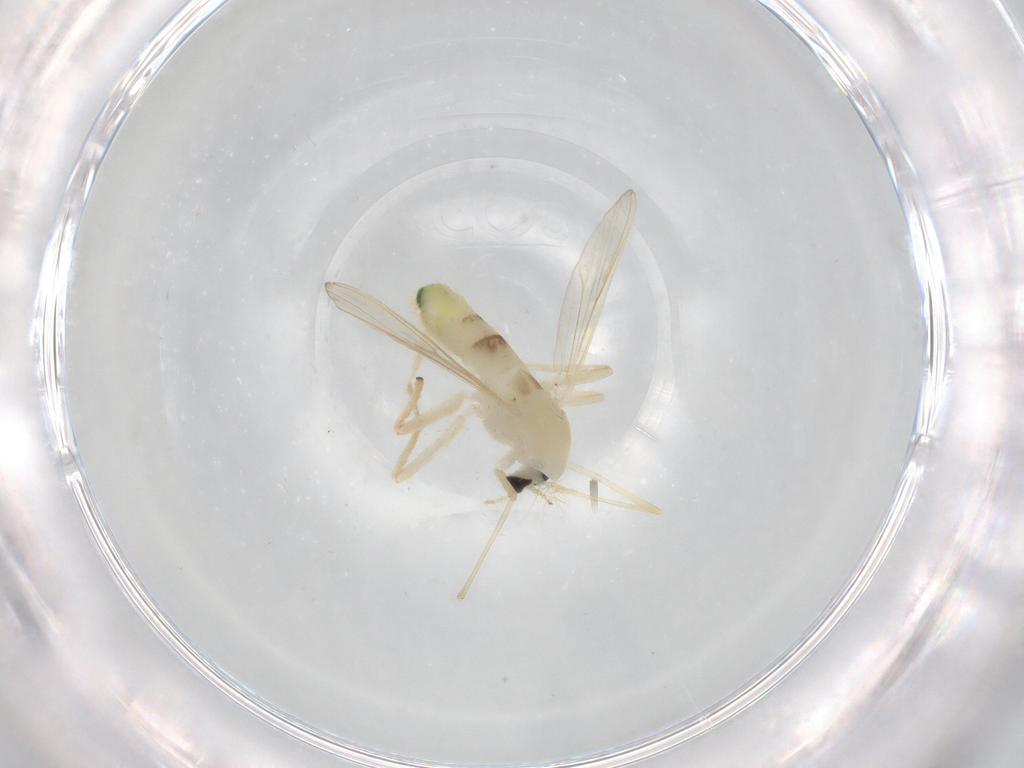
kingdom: Animalia
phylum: Arthropoda
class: Insecta
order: Diptera
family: Chironomidae
